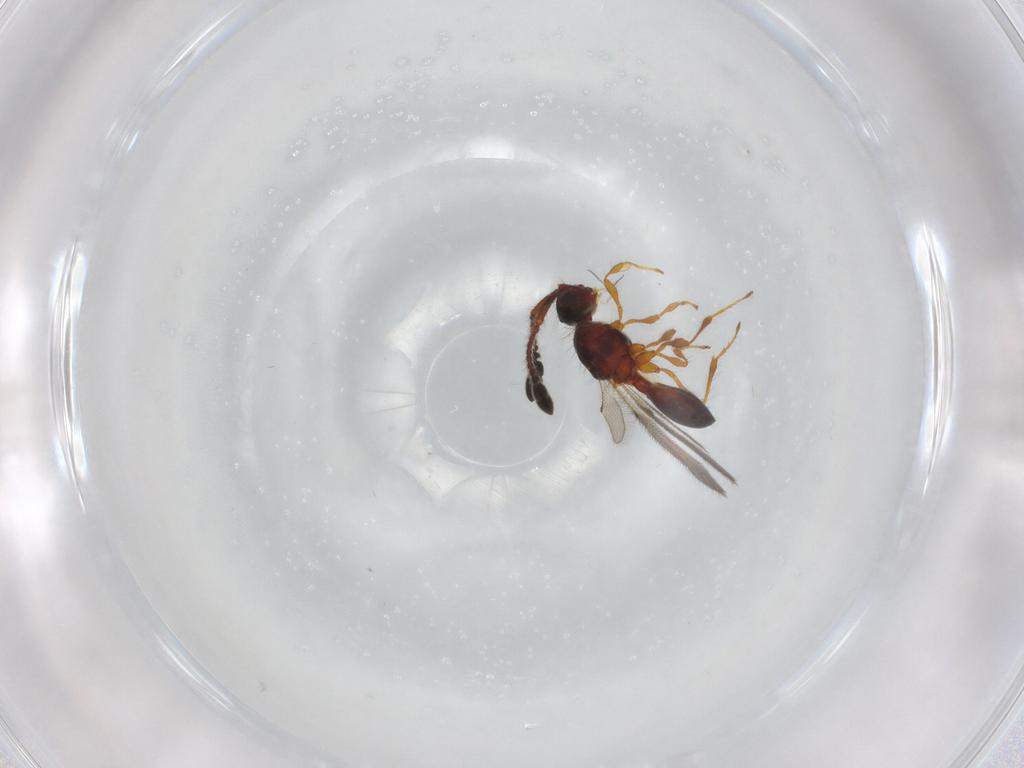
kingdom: Animalia
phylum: Arthropoda
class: Insecta
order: Hymenoptera
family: Diapriidae
